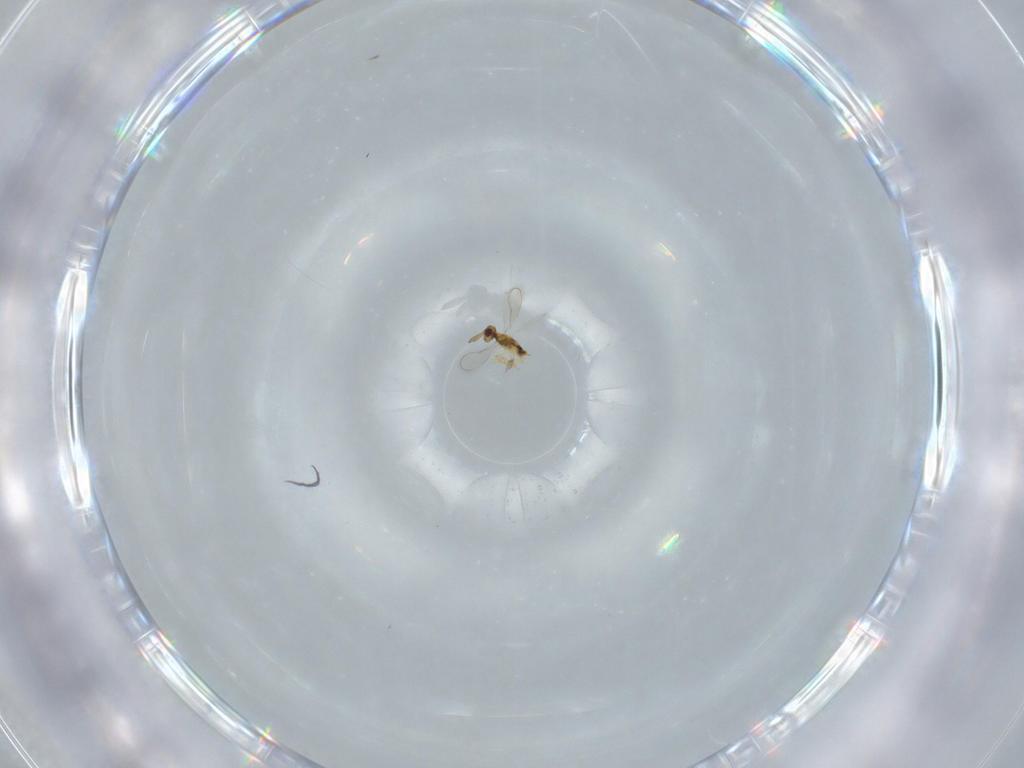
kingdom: Animalia
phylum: Arthropoda
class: Insecta
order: Hymenoptera
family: Aphelinidae
